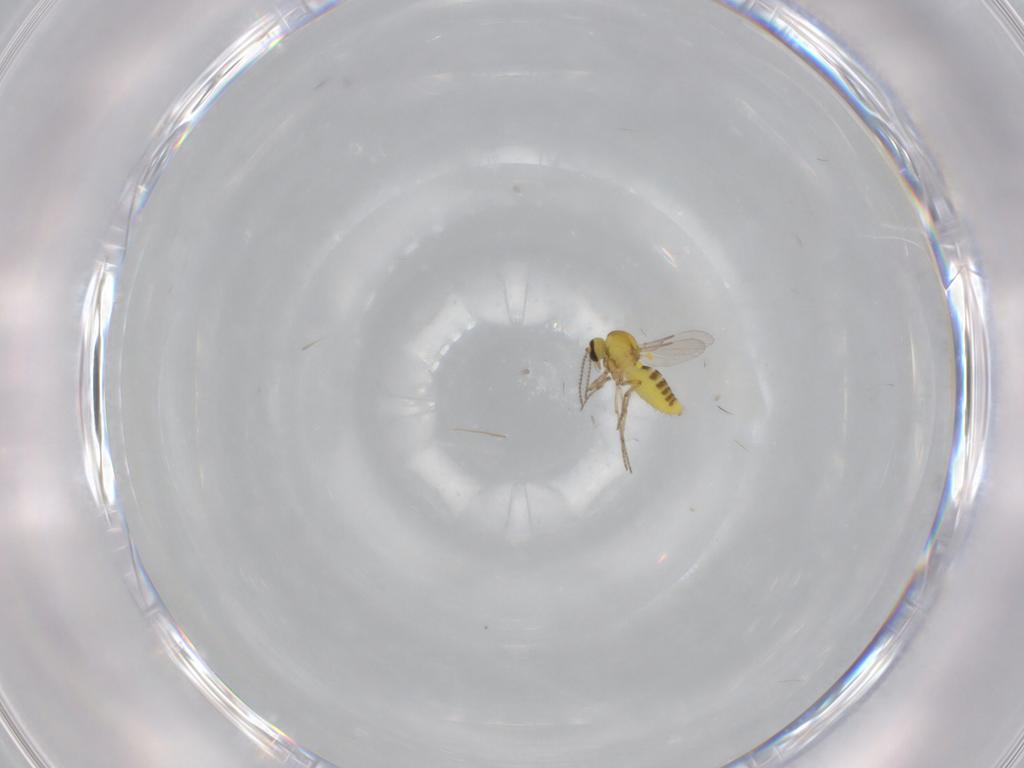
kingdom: Animalia
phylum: Arthropoda
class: Insecta
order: Diptera
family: Ceratopogonidae
